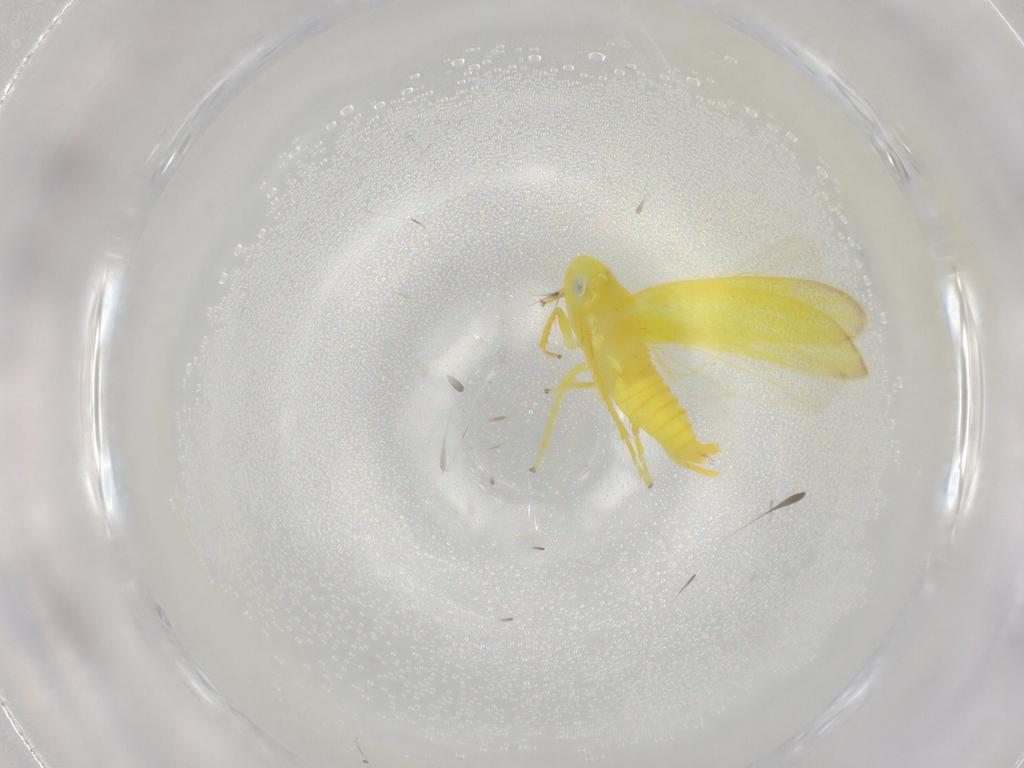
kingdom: Animalia
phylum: Arthropoda
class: Insecta
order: Hemiptera
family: Cicadellidae
